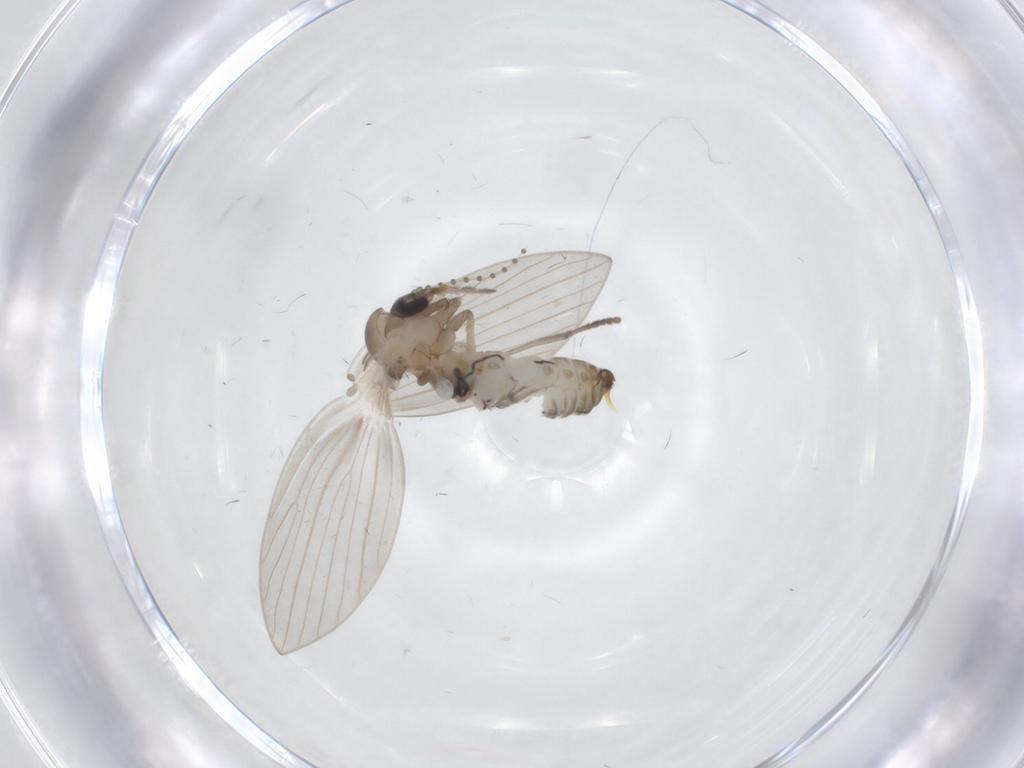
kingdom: Animalia
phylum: Arthropoda
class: Insecta
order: Diptera
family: Psychodidae
